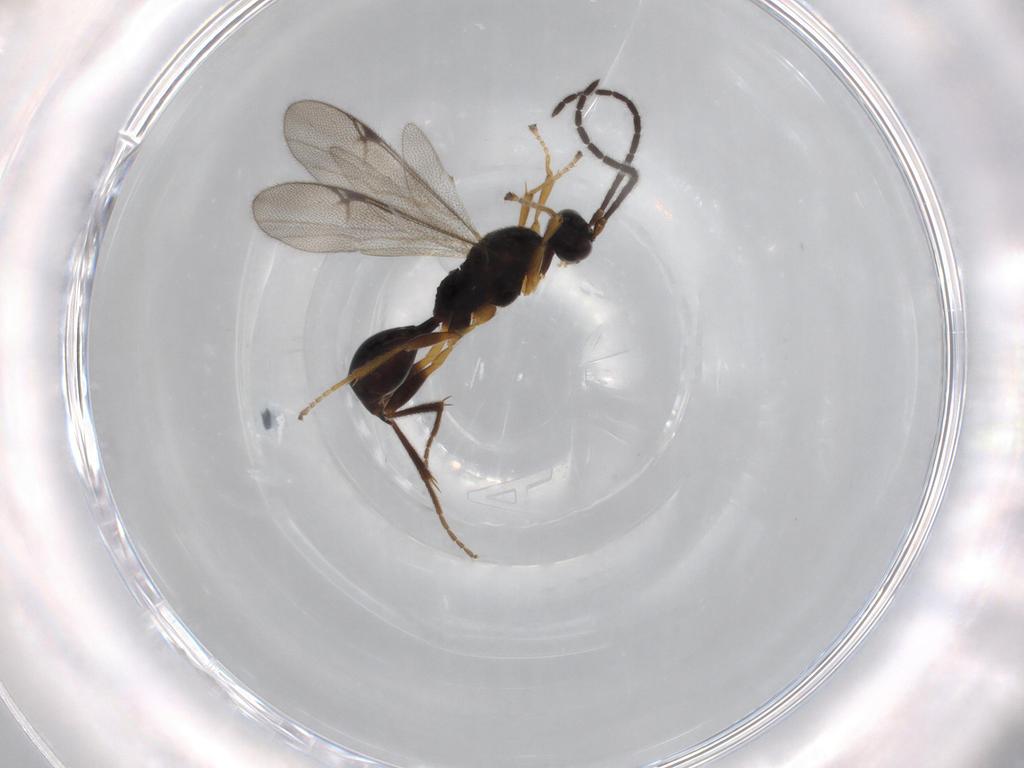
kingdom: Animalia
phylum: Arthropoda
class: Insecta
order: Hymenoptera
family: Proctotrupidae
